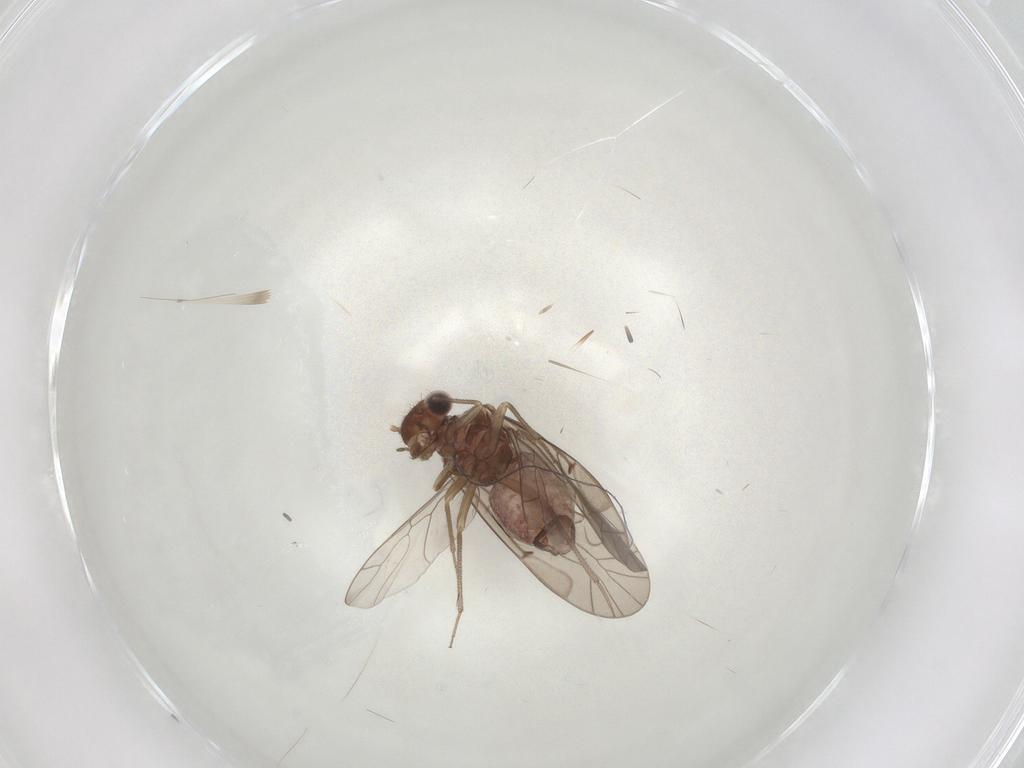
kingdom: Animalia
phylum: Arthropoda
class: Insecta
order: Psocodea
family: Lachesillidae
